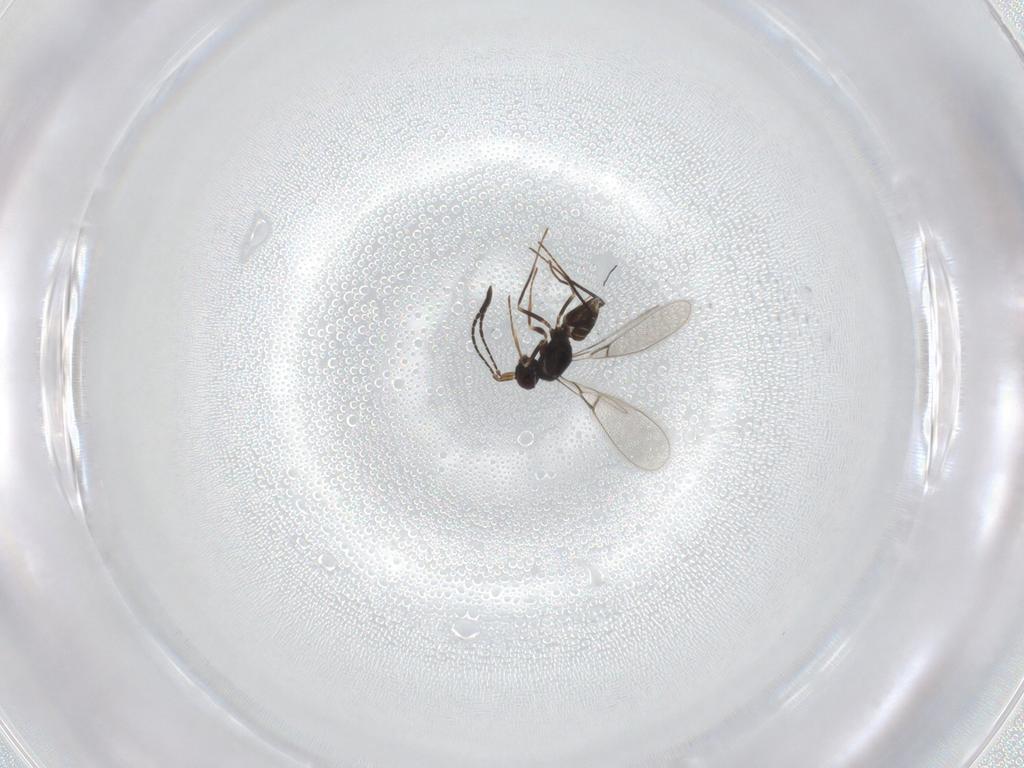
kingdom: Animalia
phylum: Arthropoda
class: Insecta
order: Hymenoptera
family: Mymaridae
